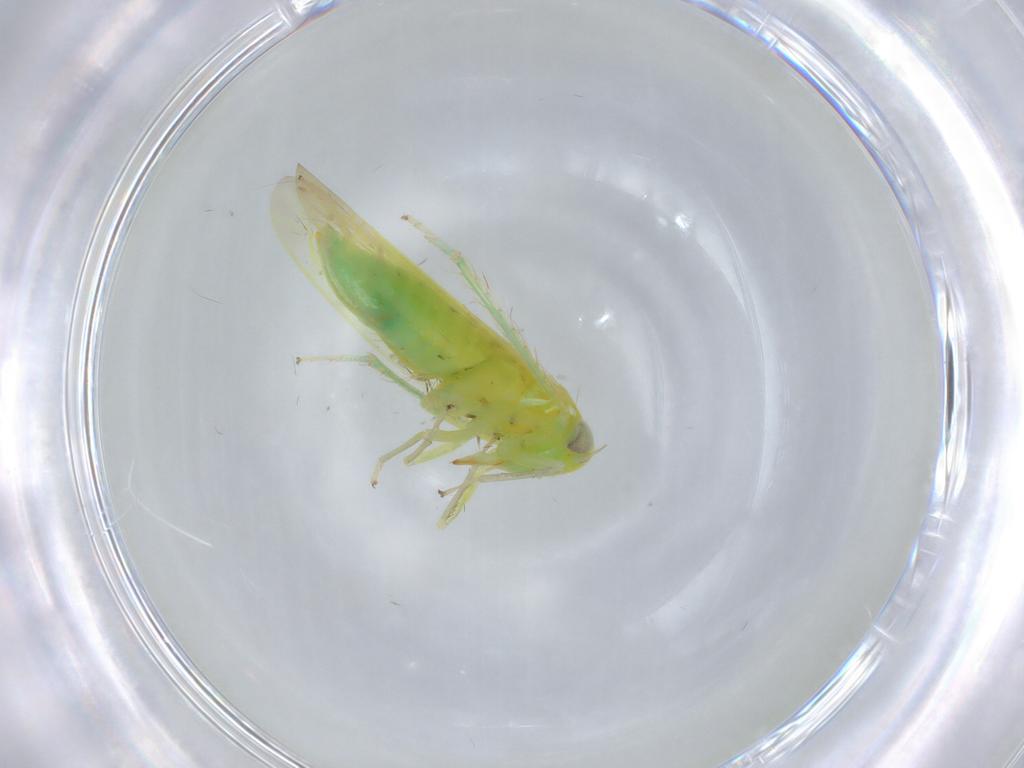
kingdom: Animalia
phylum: Arthropoda
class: Insecta
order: Hemiptera
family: Cicadellidae
